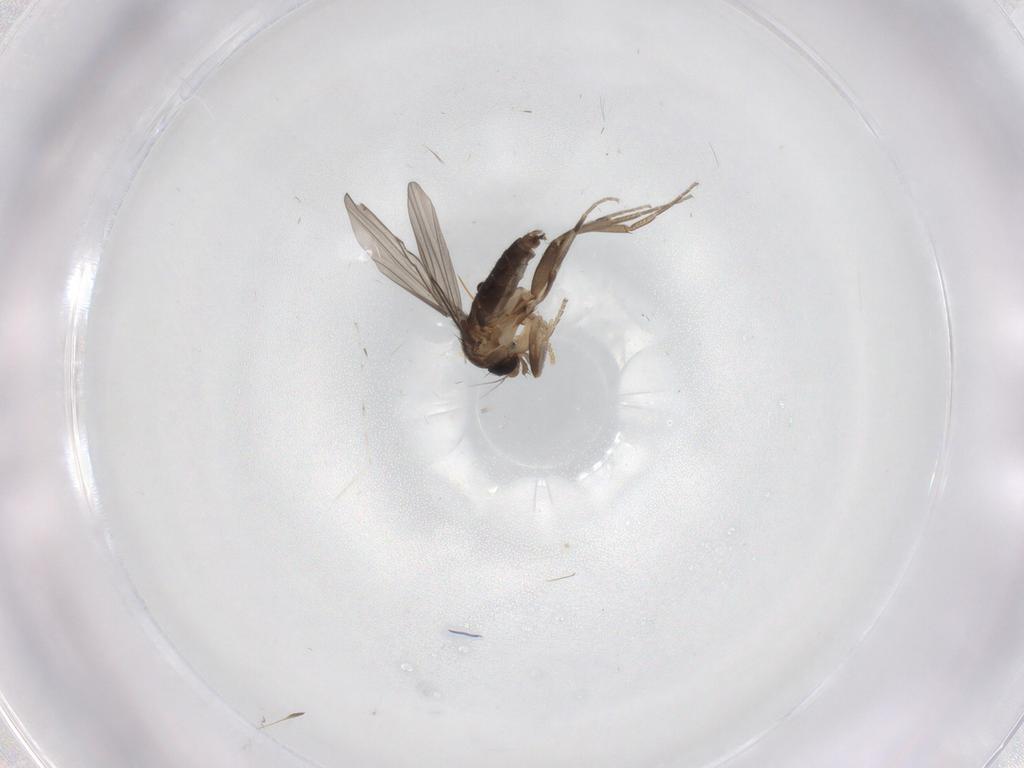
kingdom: Animalia
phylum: Arthropoda
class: Insecta
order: Diptera
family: Cecidomyiidae
